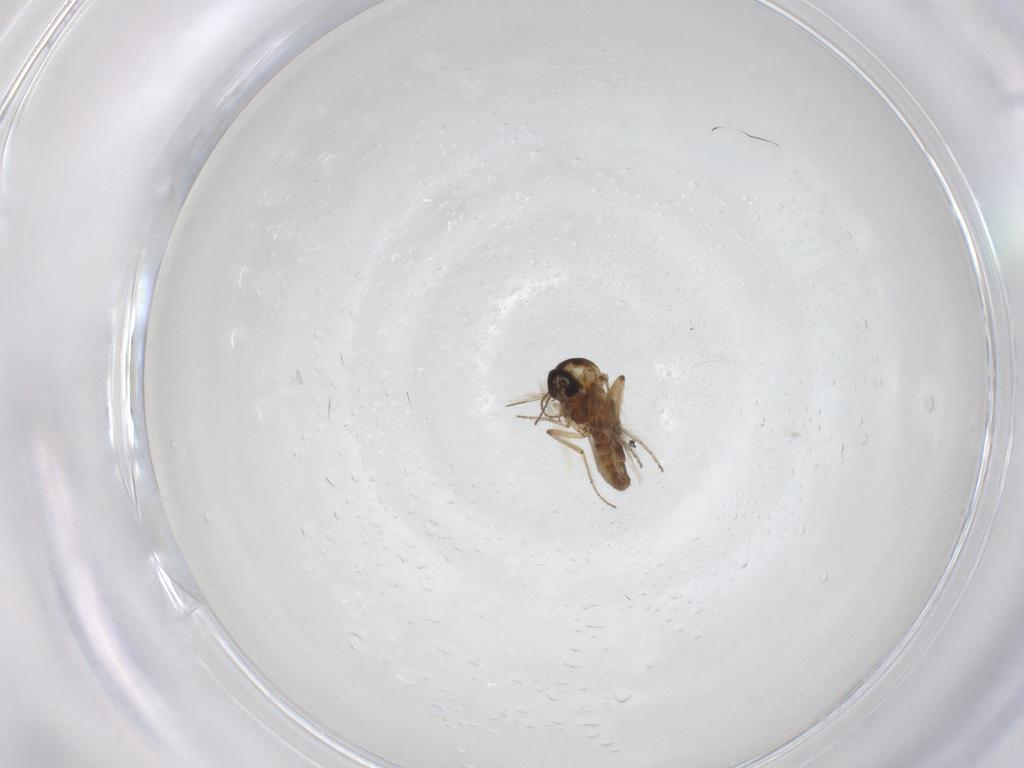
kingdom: Animalia
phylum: Arthropoda
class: Insecta
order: Diptera
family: Ceratopogonidae
